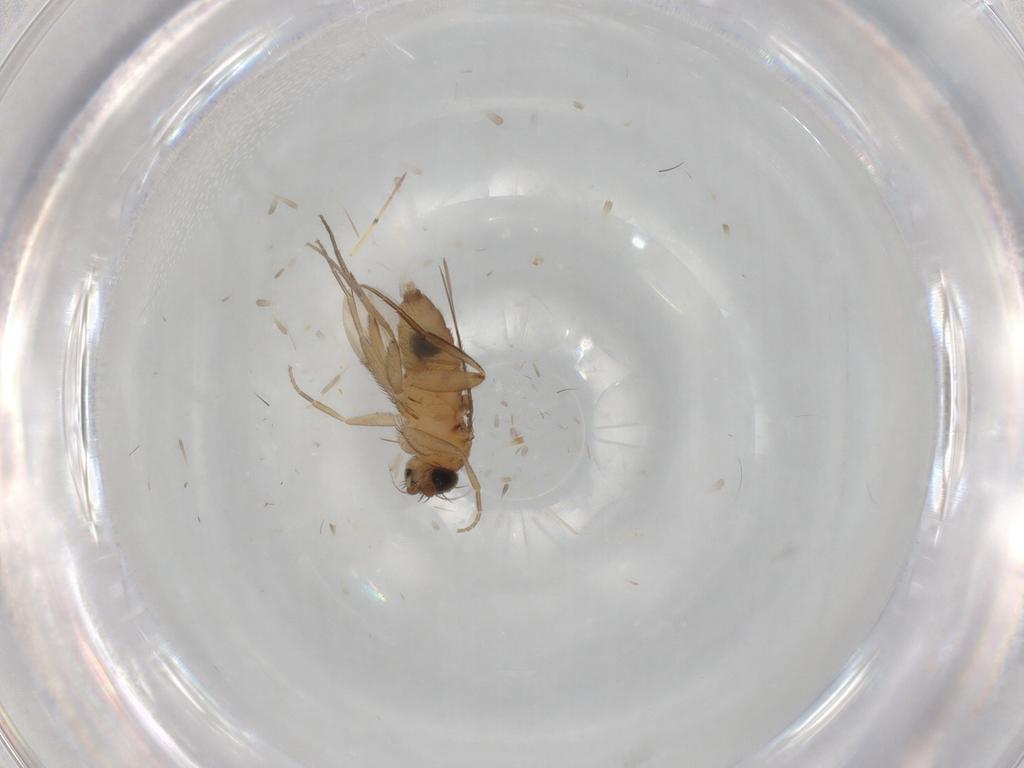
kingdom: Animalia
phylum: Arthropoda
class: Insecta
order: Diptera
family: Phoridae
